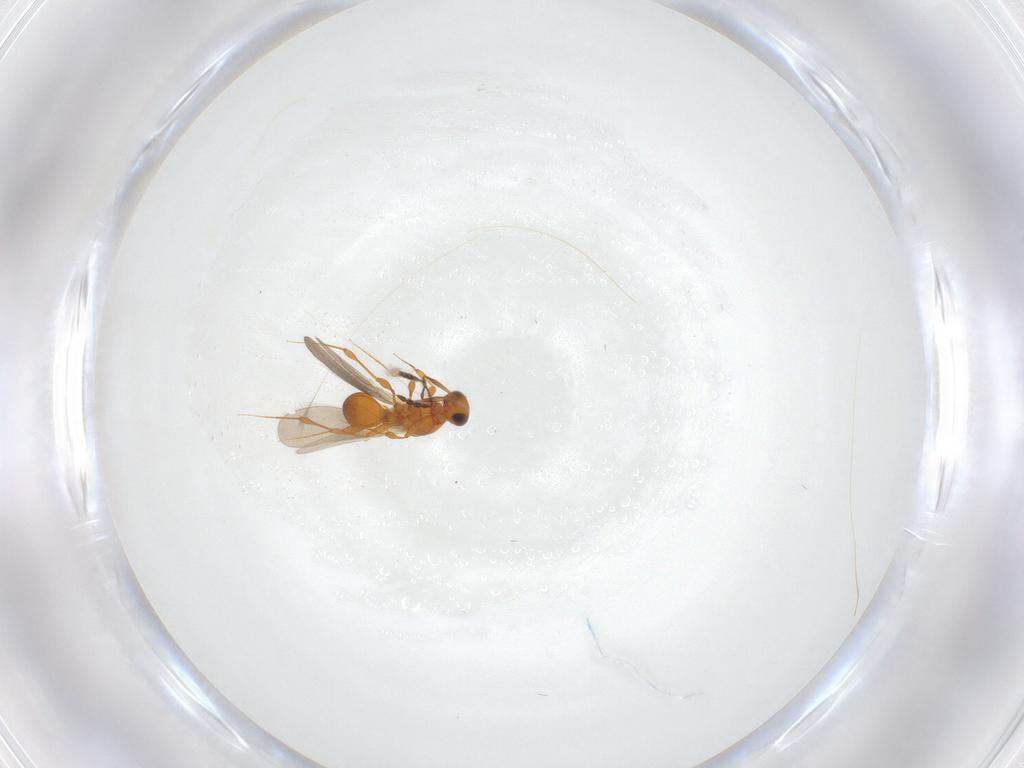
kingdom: Animalia
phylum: Arthropoda
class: Insecta
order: Hymenoptera
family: Platygastridae
